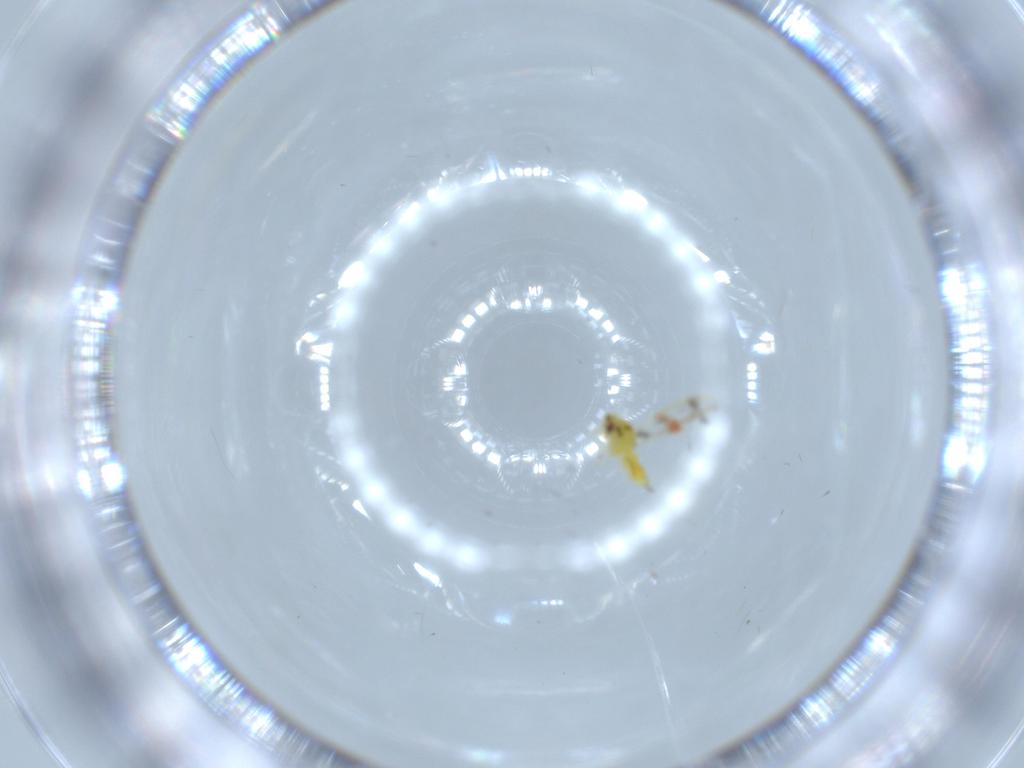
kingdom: Animalia
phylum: Arthropoda
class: Insecta
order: Hemiptera
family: Aleyrodidae
